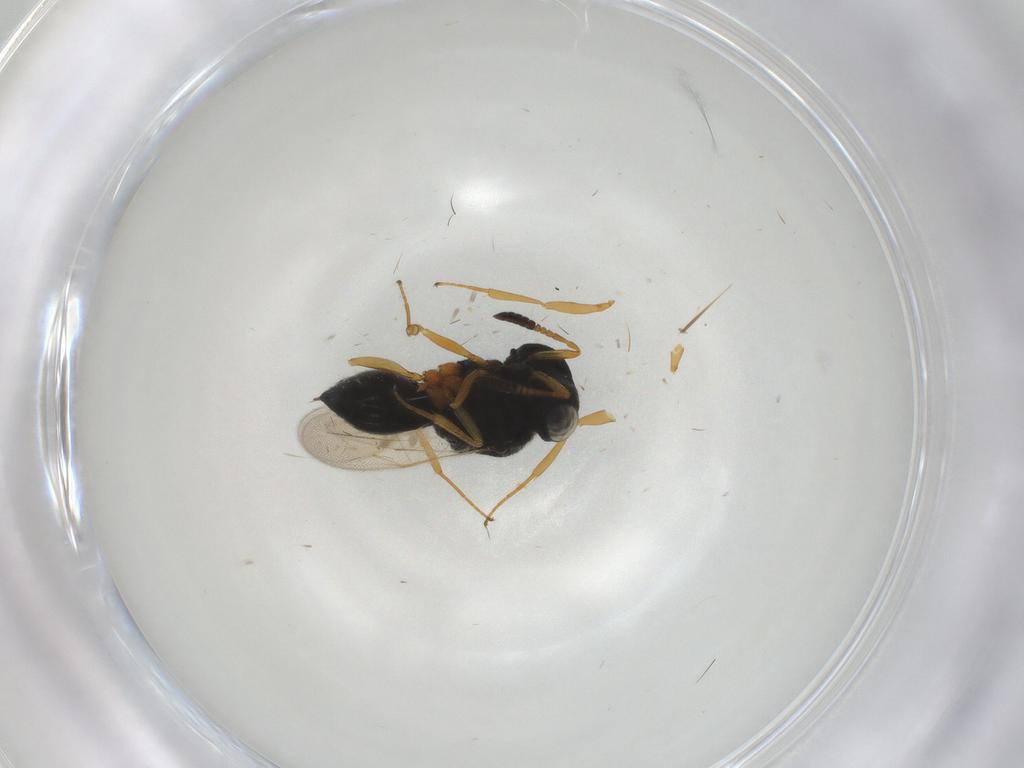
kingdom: Animalia
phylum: Arthropoda
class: Insecta
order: Hymenoptera
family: Scelionidae
